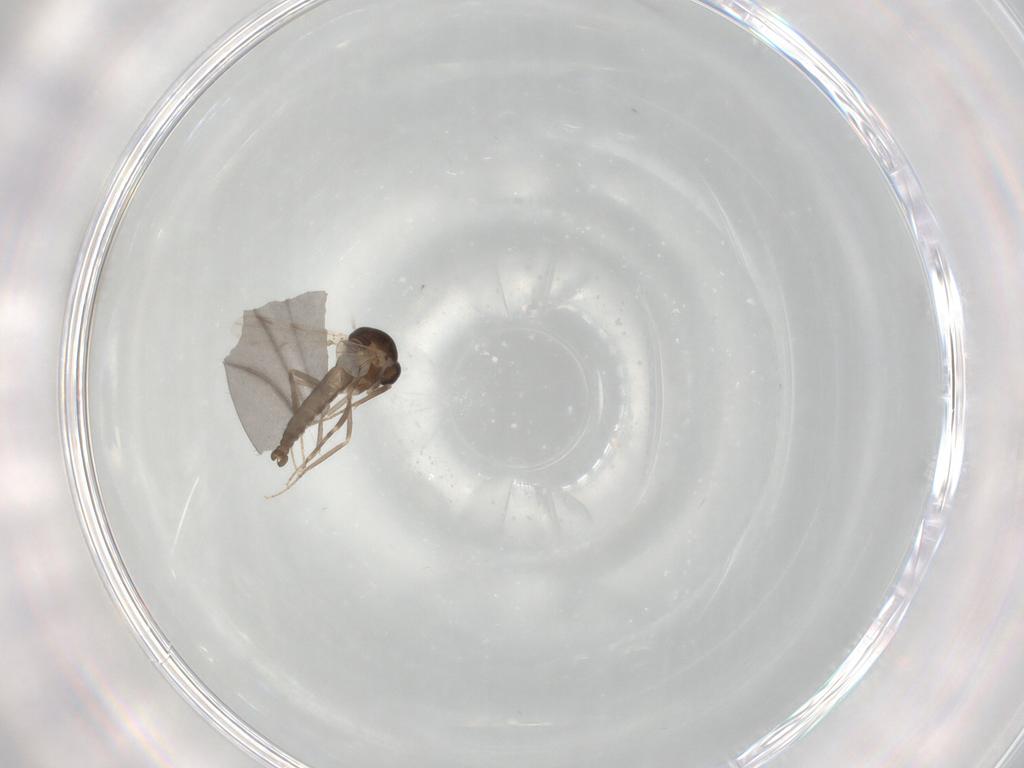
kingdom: Animalia
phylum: Arthropoda
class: Insecta
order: Diptera
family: Ceratopogonidae
